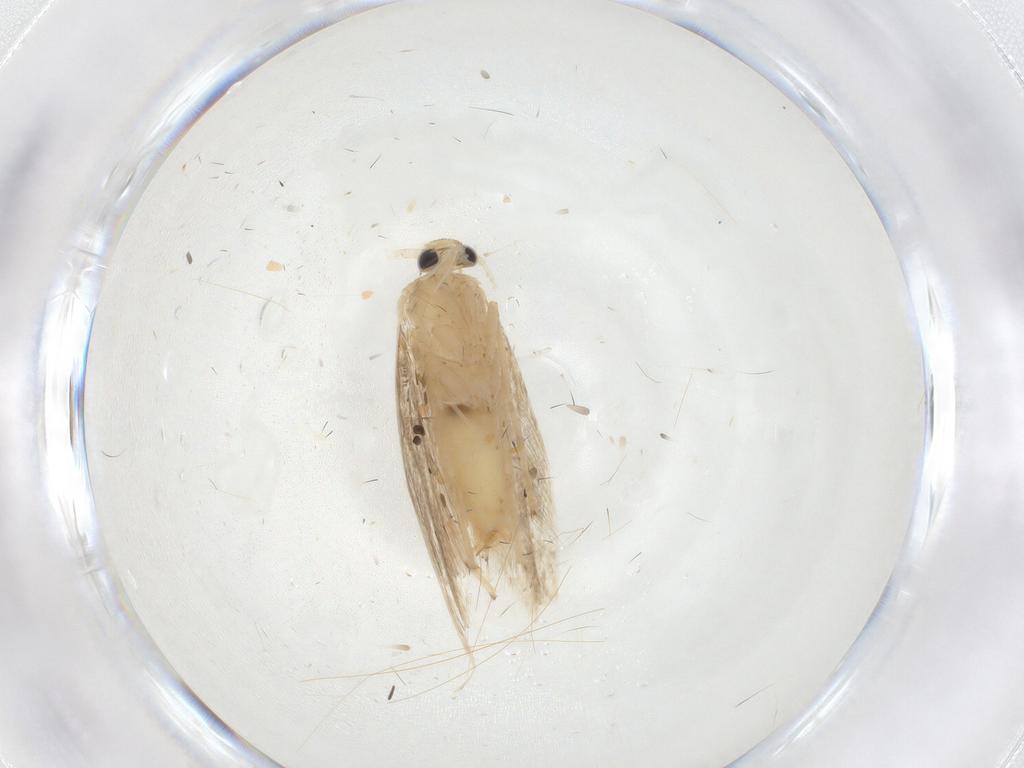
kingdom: Animalia
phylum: Arthropoda
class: Insecta
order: Lepidoptera
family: Gracillariidae
